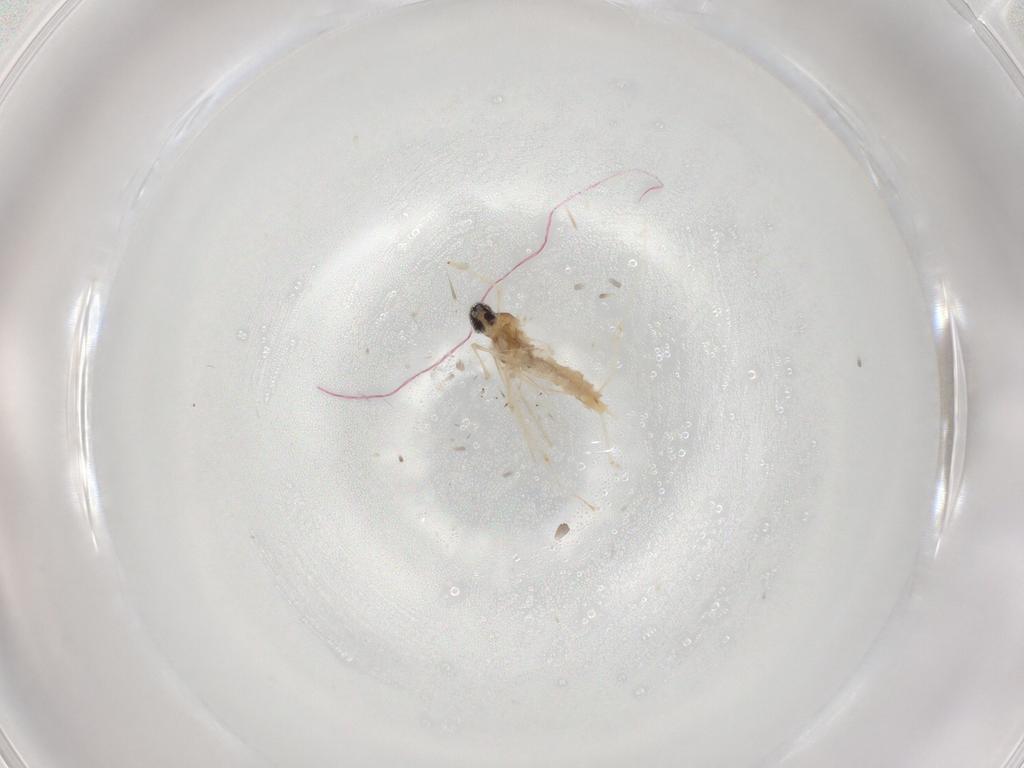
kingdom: Animalia
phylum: Arthropoda
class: Insecta
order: Diptera
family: Cecidomyiidae
